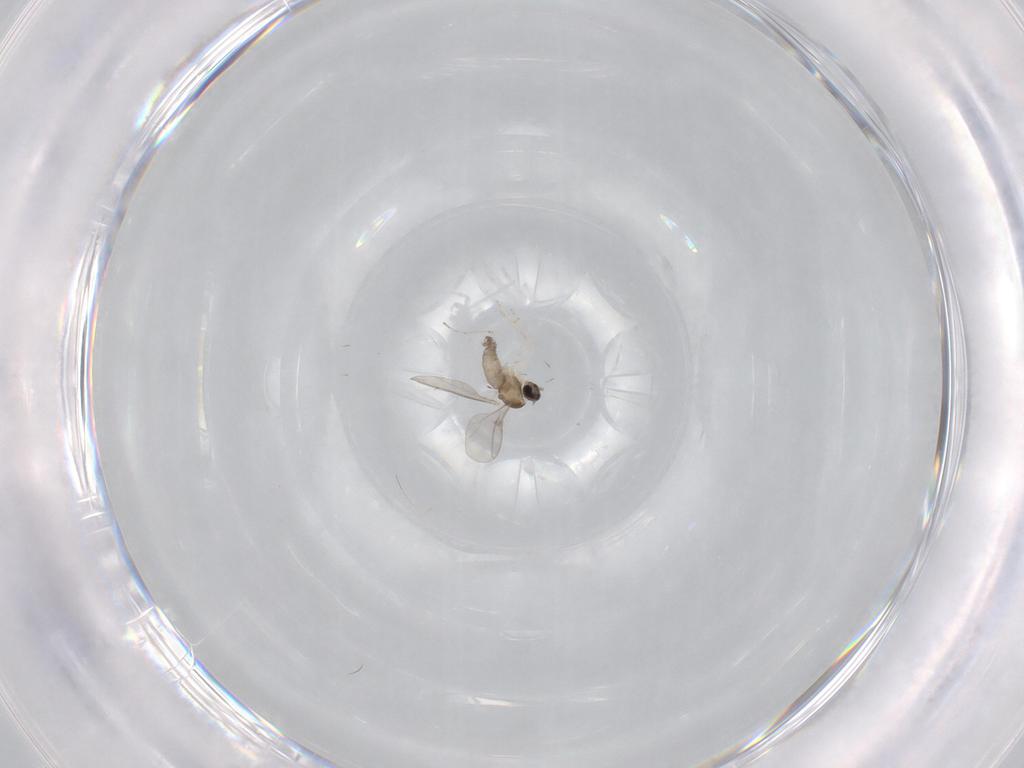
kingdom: Animalia
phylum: Arthropoda
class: Insecta
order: Diptera
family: Cecidomyiidae
